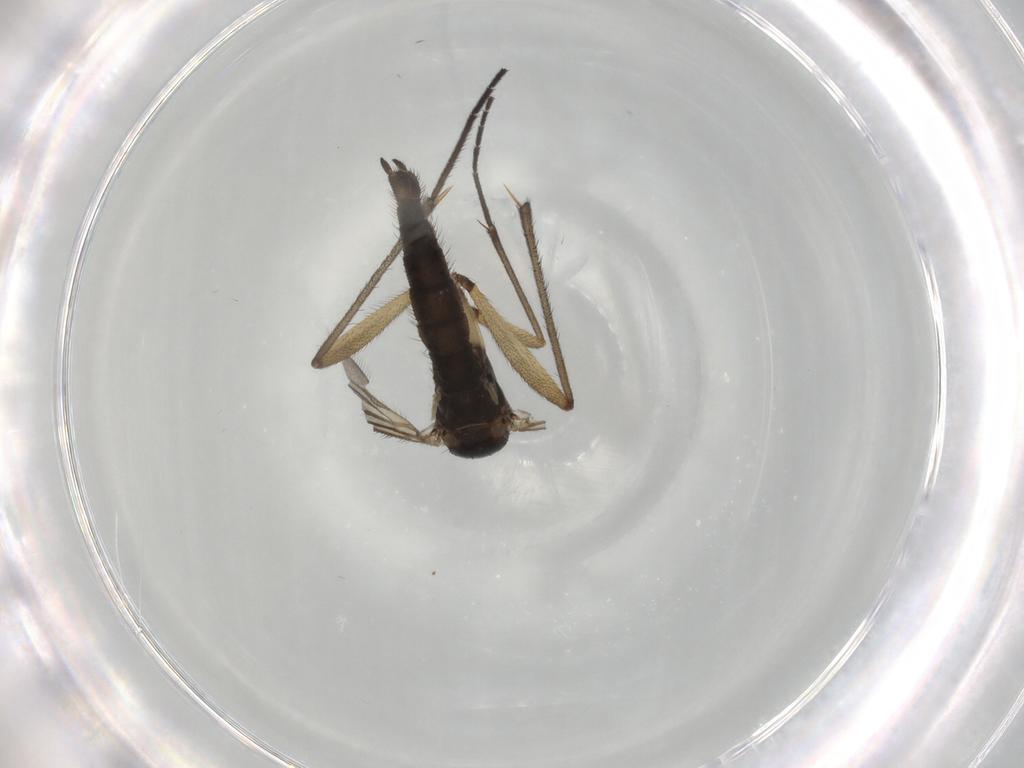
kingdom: Animalia
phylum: Arthropoda
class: Insecta
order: Diptera
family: Sciaridae
